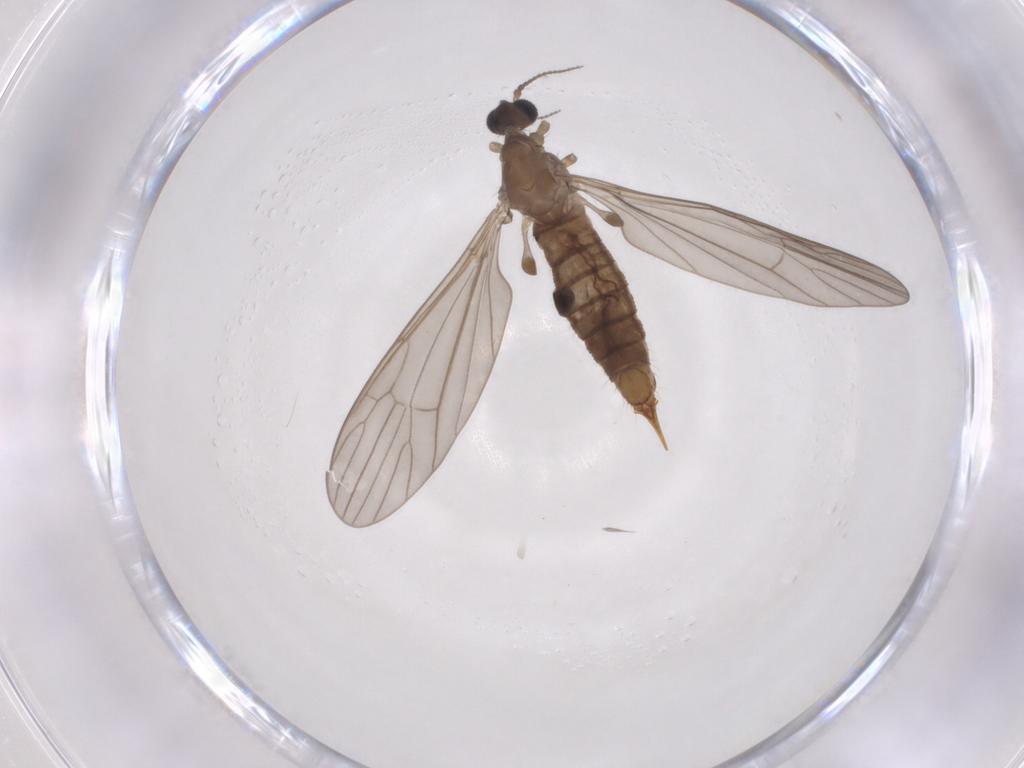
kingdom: Animalia
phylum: Arthropoda
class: Insecta
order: Diptera
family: Limoniidae
